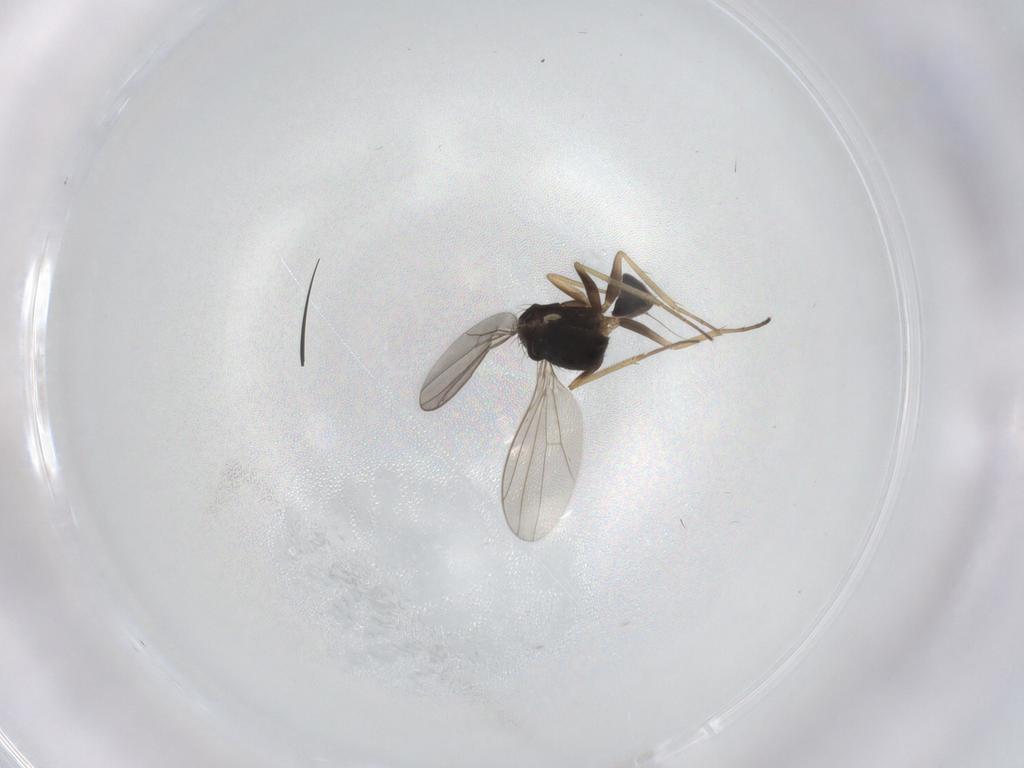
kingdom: Animalia
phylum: Arthropoda
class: Insecta
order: Diptera
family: Dolichopodidae
